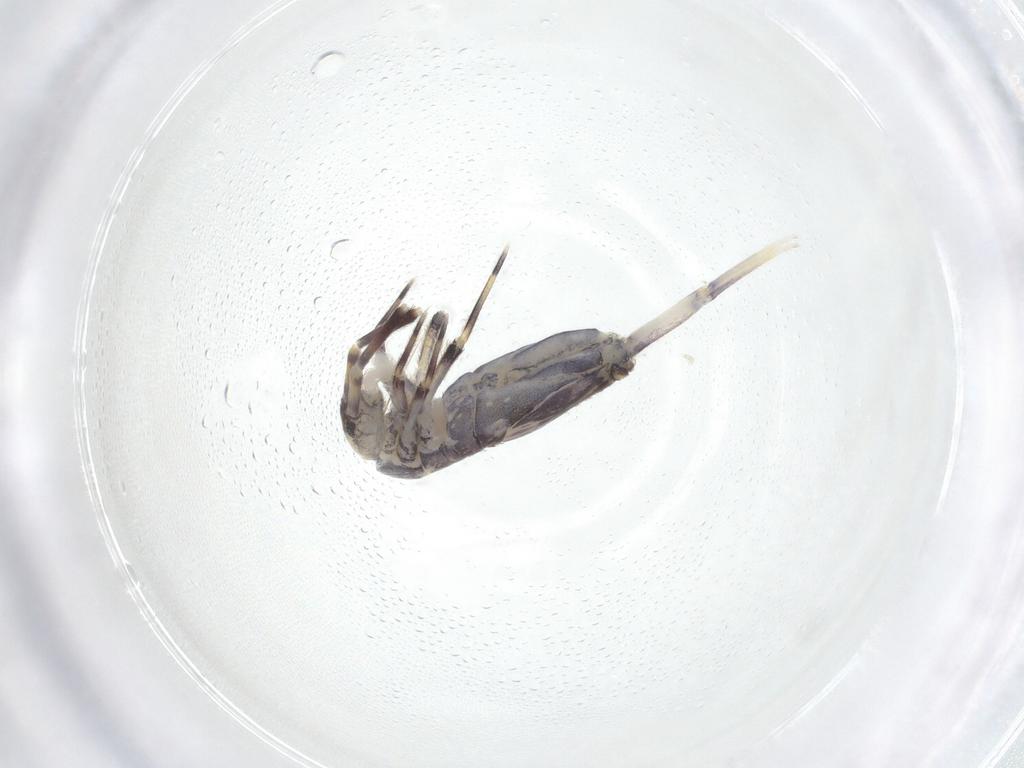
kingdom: Animalia
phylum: Arthropoda
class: Collembola
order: Entomobryomorpha
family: Entomobryidae
